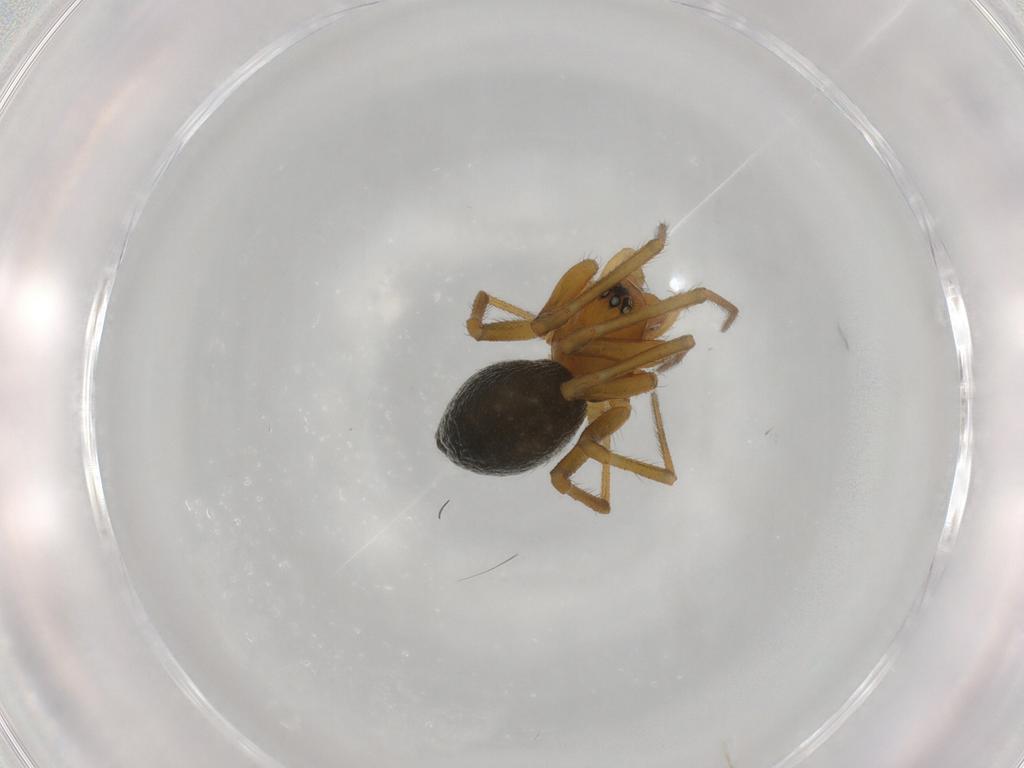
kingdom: Animalia
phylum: Arthropoda
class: Arachnida
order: Araneae
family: Linyphiidae
